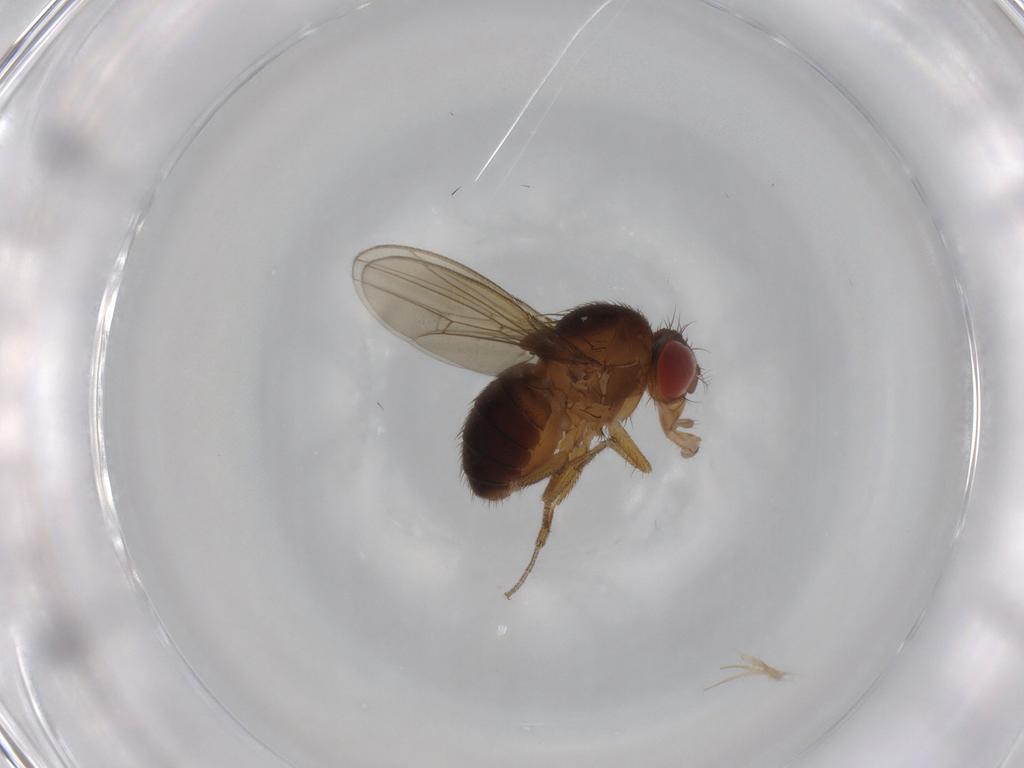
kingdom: Animalia
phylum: Arthropoda
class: Insecta
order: Diptera
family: Drosophilidae
